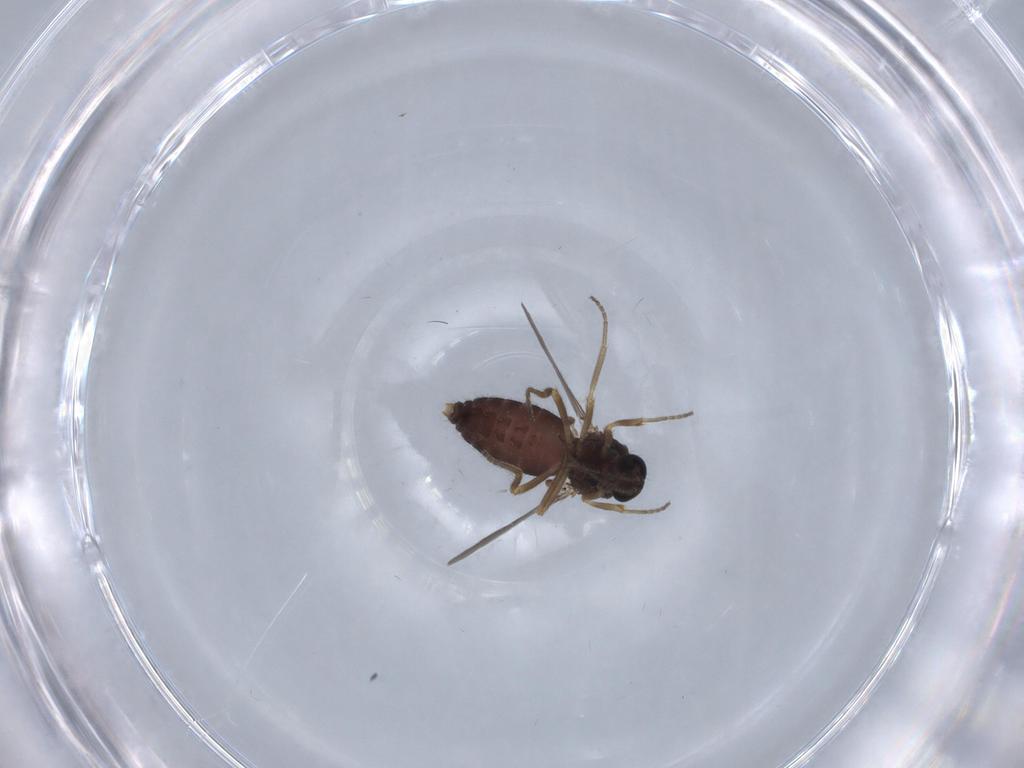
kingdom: Animalia
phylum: Arthropoda
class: Insecta
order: Diptera
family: Ceratopogonidae
